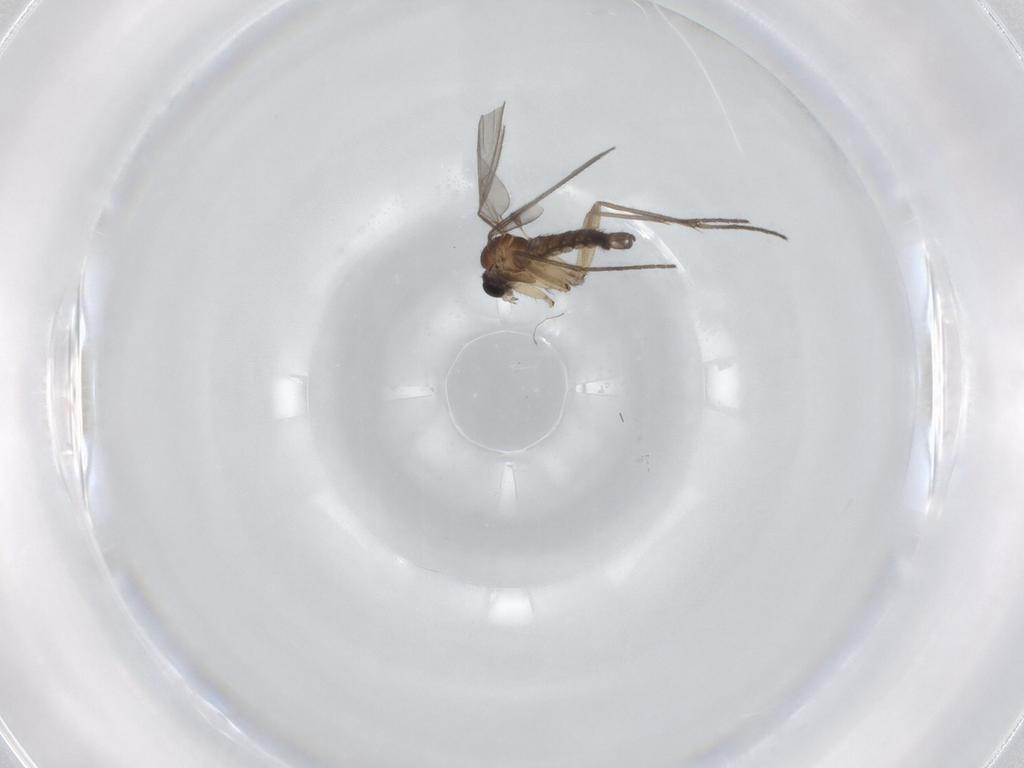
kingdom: Animalia
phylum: Arthropoda
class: Insecta
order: Diptera
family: Sciaridae
